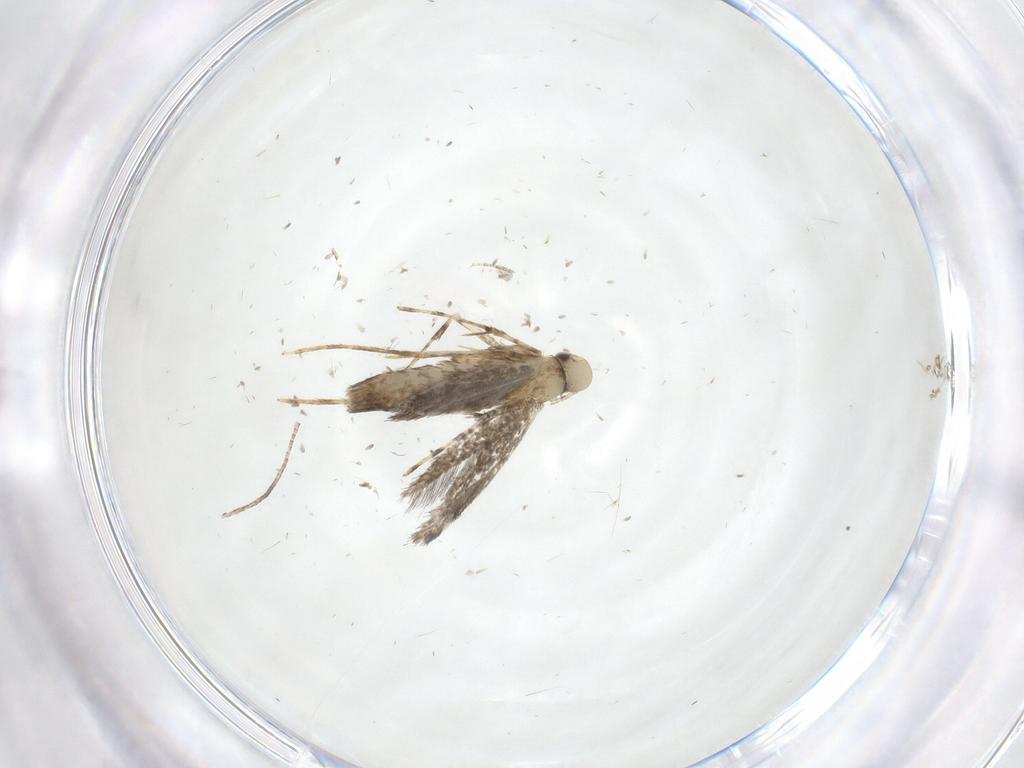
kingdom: Animalia
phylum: Arthropoda
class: Insecta
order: Lepidoptera
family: Gracillariidae
